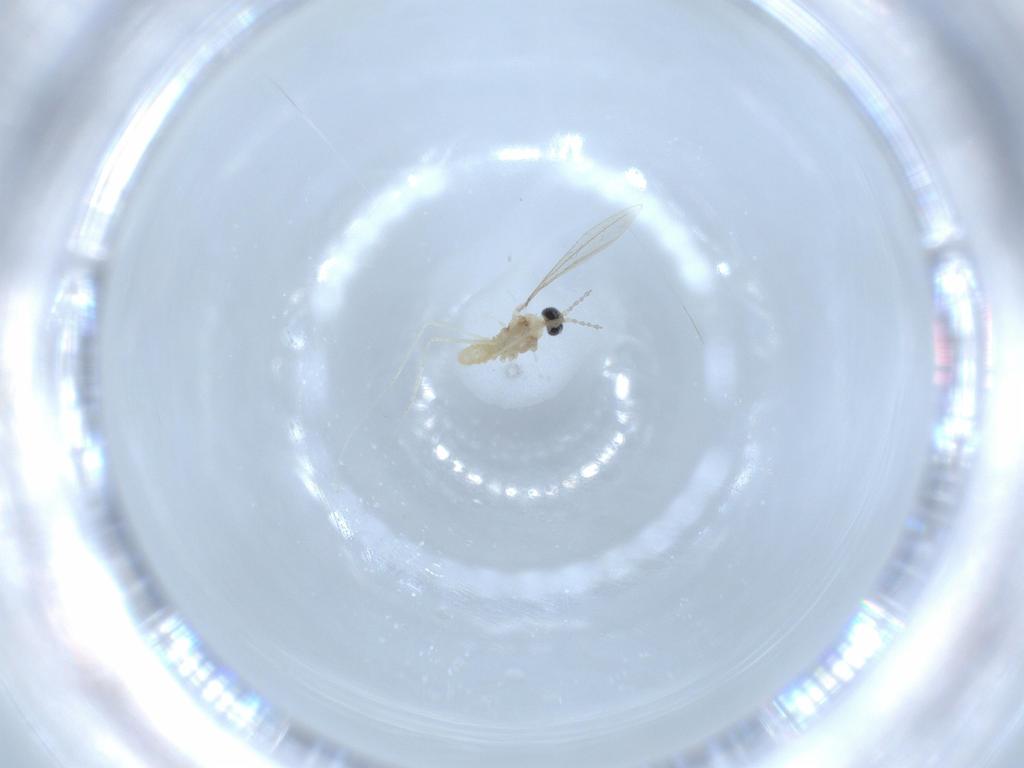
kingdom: Animalia
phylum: Arthropoda
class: Insecta
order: Diptera
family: Cecidomyiidae
